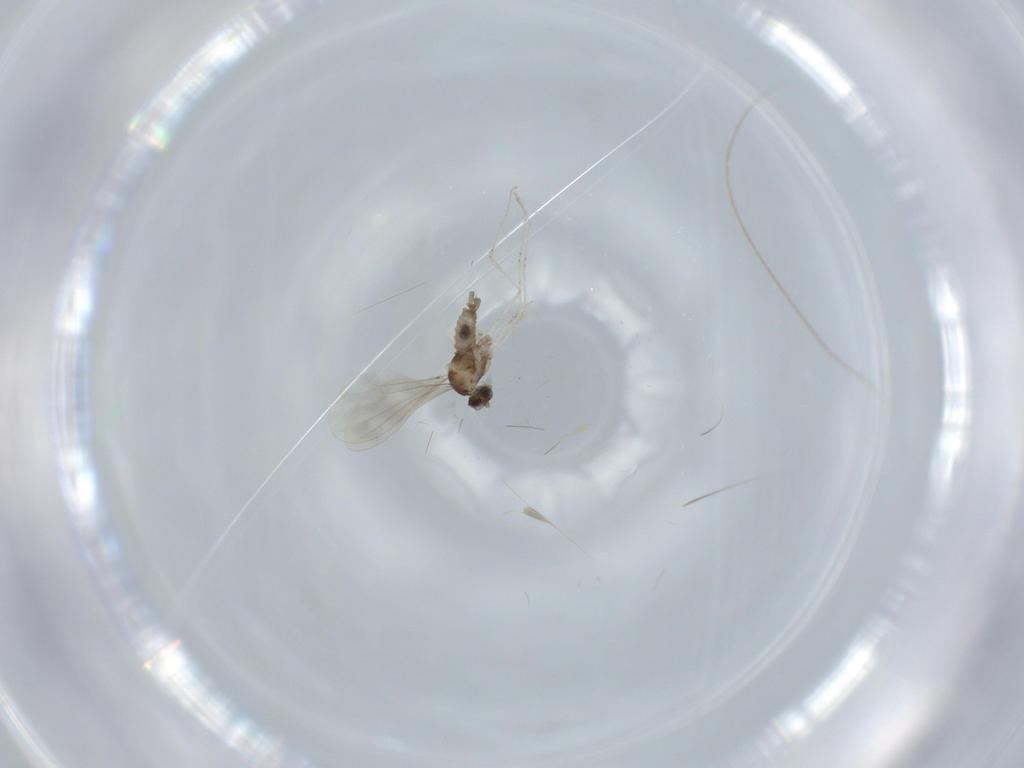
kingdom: Animalia
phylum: Arthropoda
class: Insecta
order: Diptera
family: Cecidomyiidae
